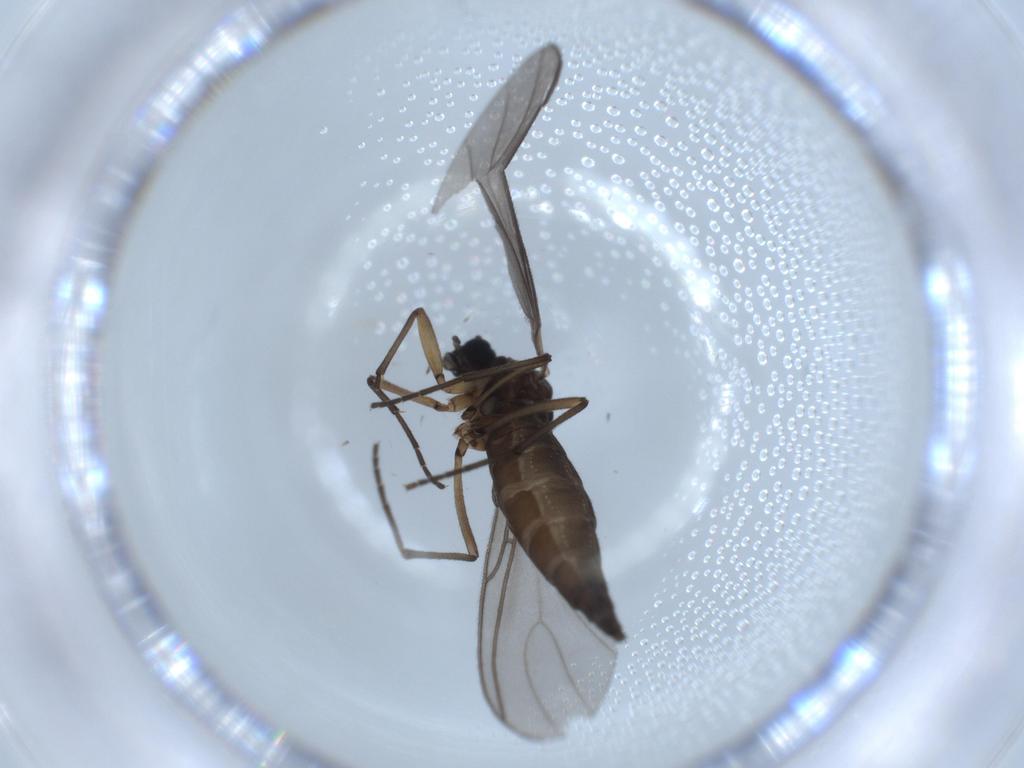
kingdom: Animalia
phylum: Arthropoda
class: Insecta
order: Diptera
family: Sciaridae
